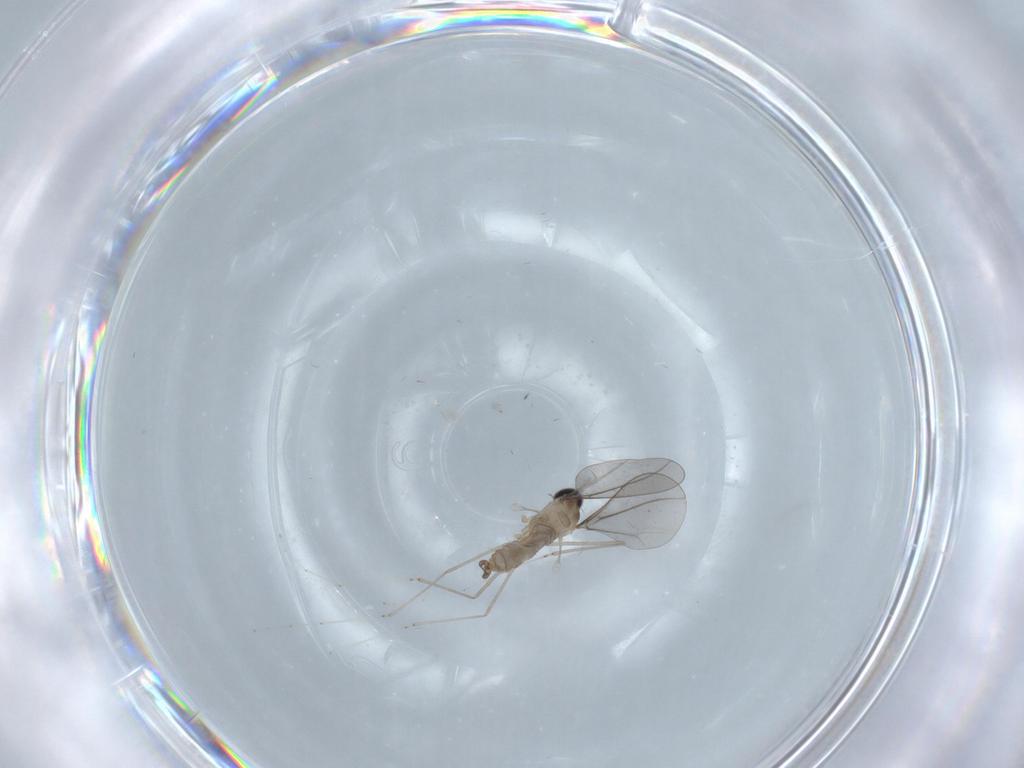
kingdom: Animalia
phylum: Arthropoda
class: Insecta
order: Diptera
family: Cecidomyiidae
